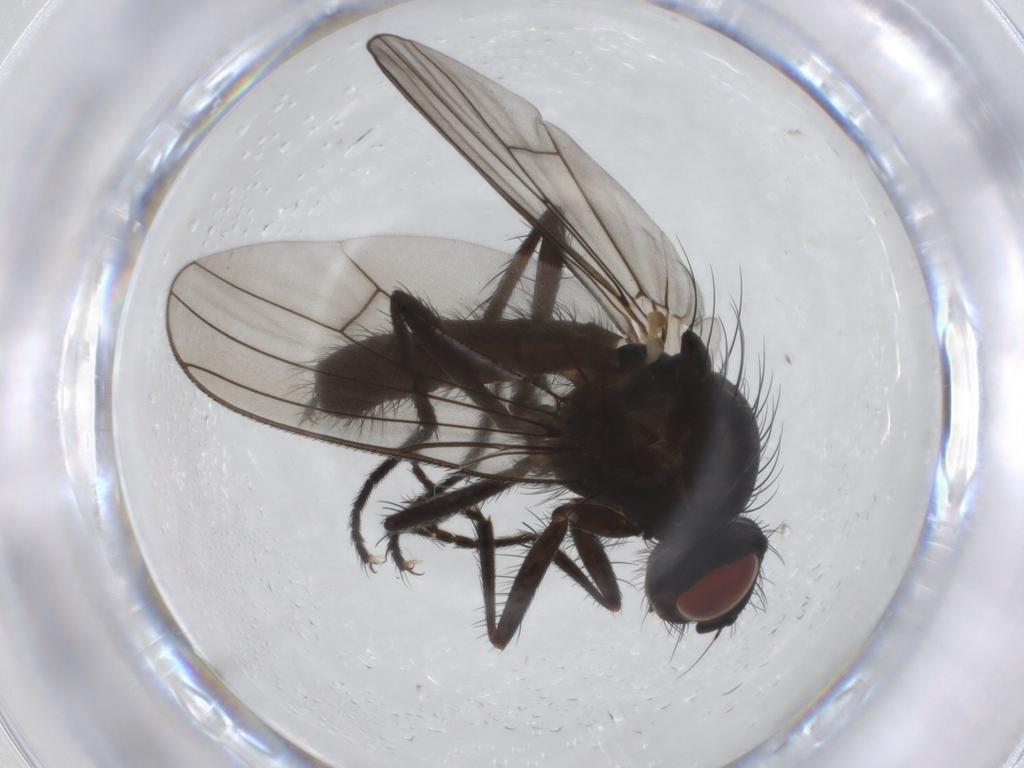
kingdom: Animalia
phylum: Arthropoda
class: Insecta
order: Diptera
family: Anthomyiidae
